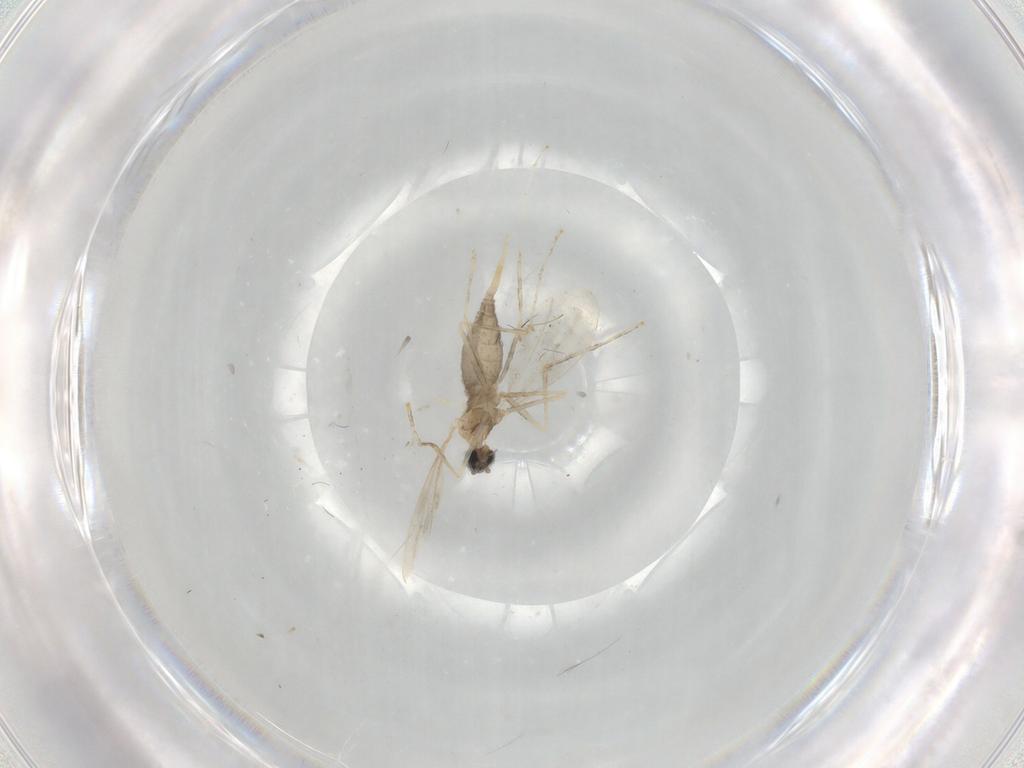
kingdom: Animalia
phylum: Arthropoda
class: Insecta
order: Diptera
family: Cecidomyiidae
